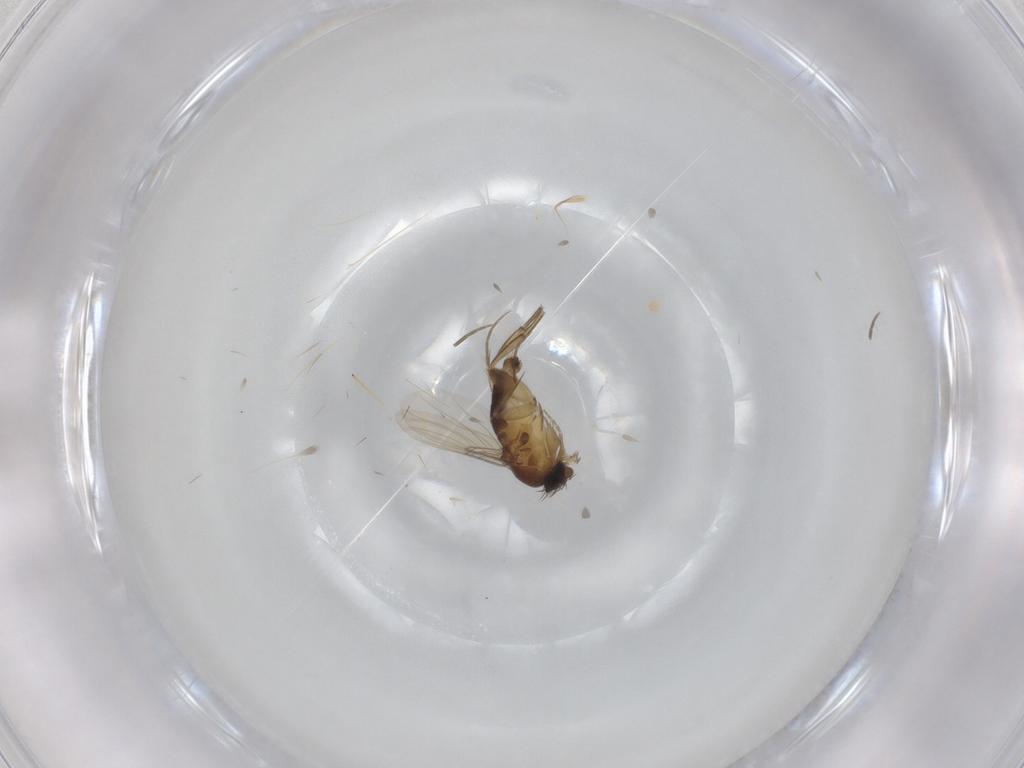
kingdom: Animalia
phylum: Arthropoda
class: Insecta
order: Diptera
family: Phoridae
